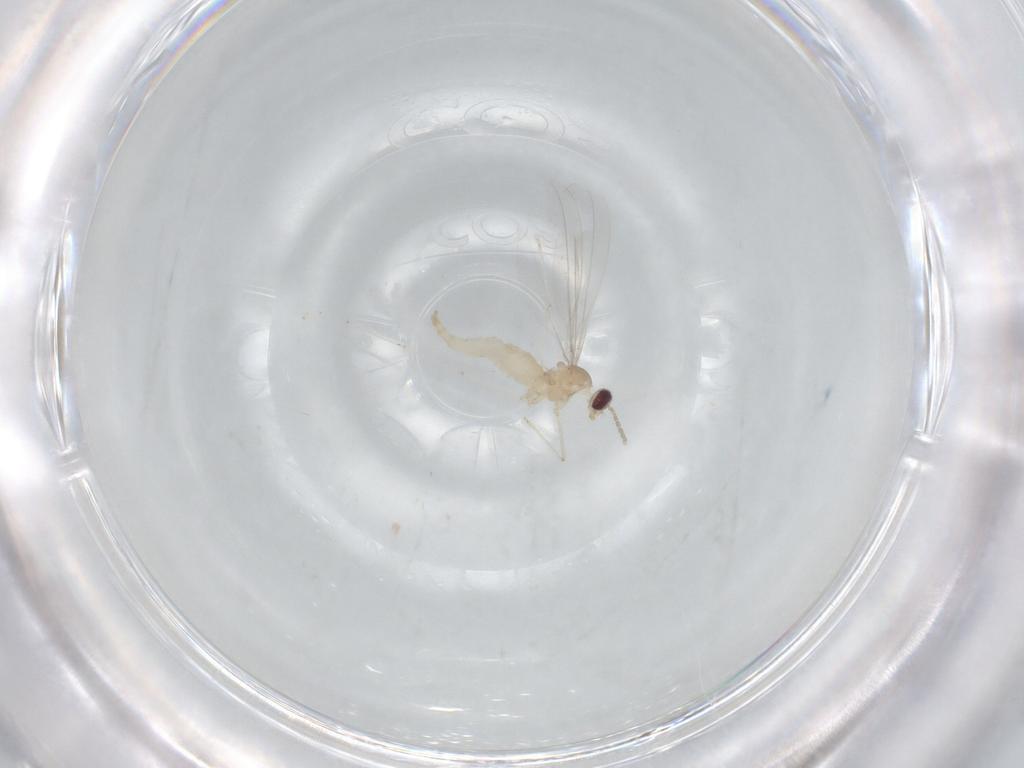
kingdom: Animalia
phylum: Arthropoda
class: Insecta
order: Diptera
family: Cecidomyiidae
